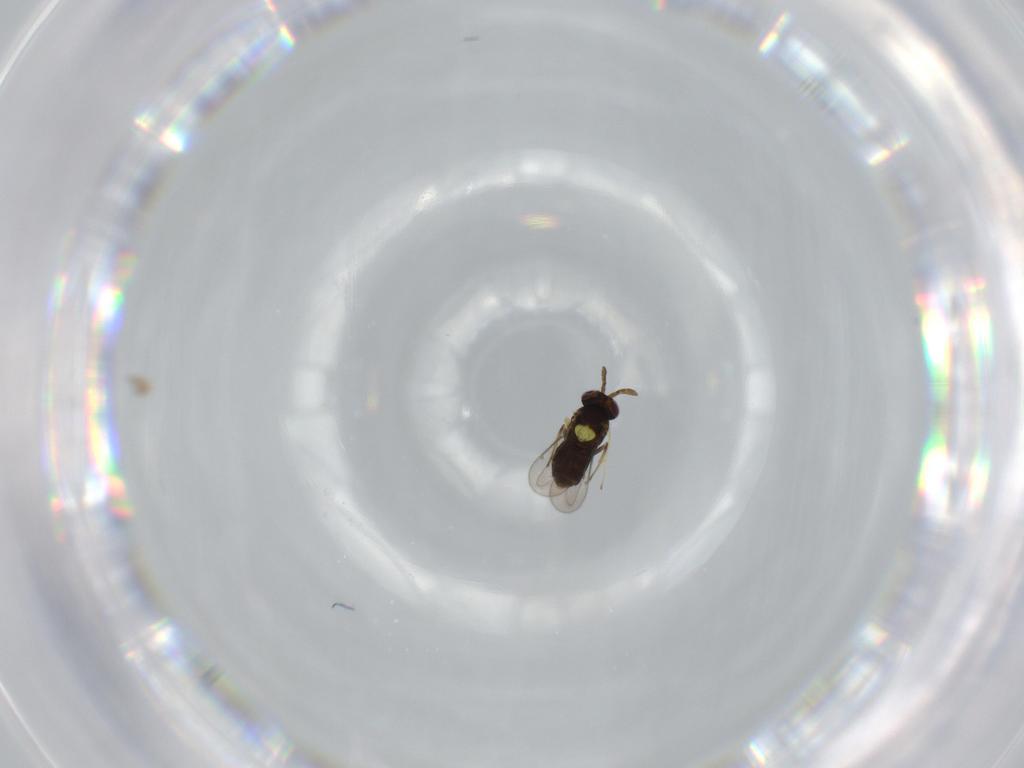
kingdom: Animalia
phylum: Arthropoda
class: Insecta
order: Hymenoptera
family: Aphelinidae
